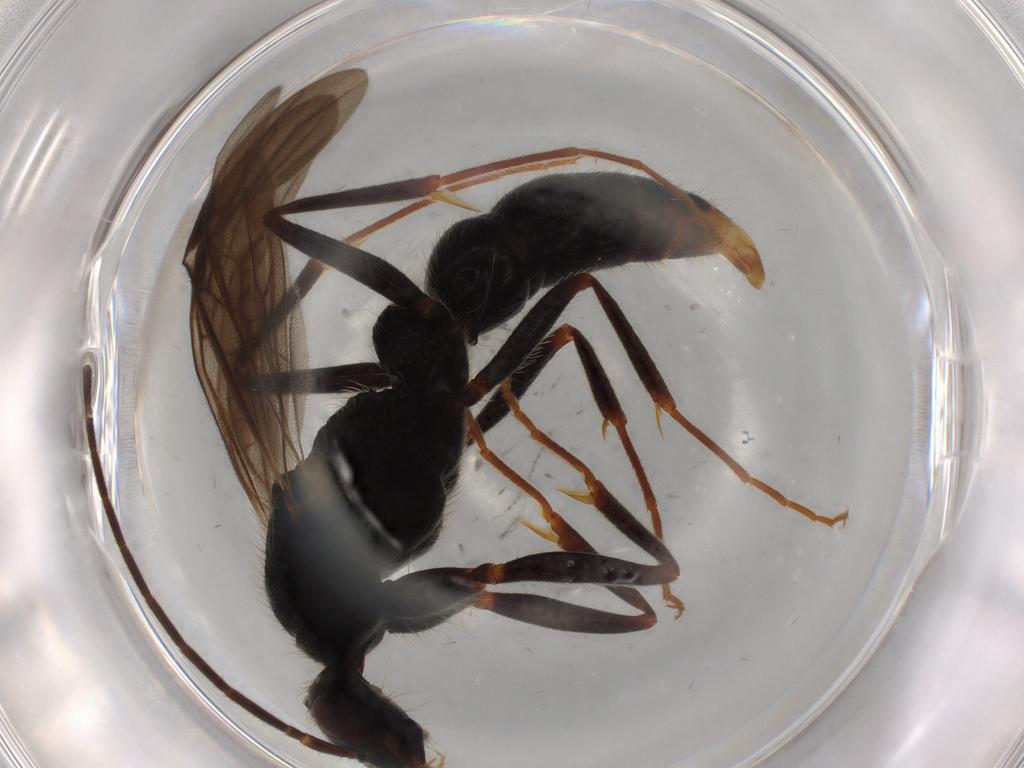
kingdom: Animalia
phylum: Arthropoda
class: Insecta
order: Hymenoptera
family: Formicidae
